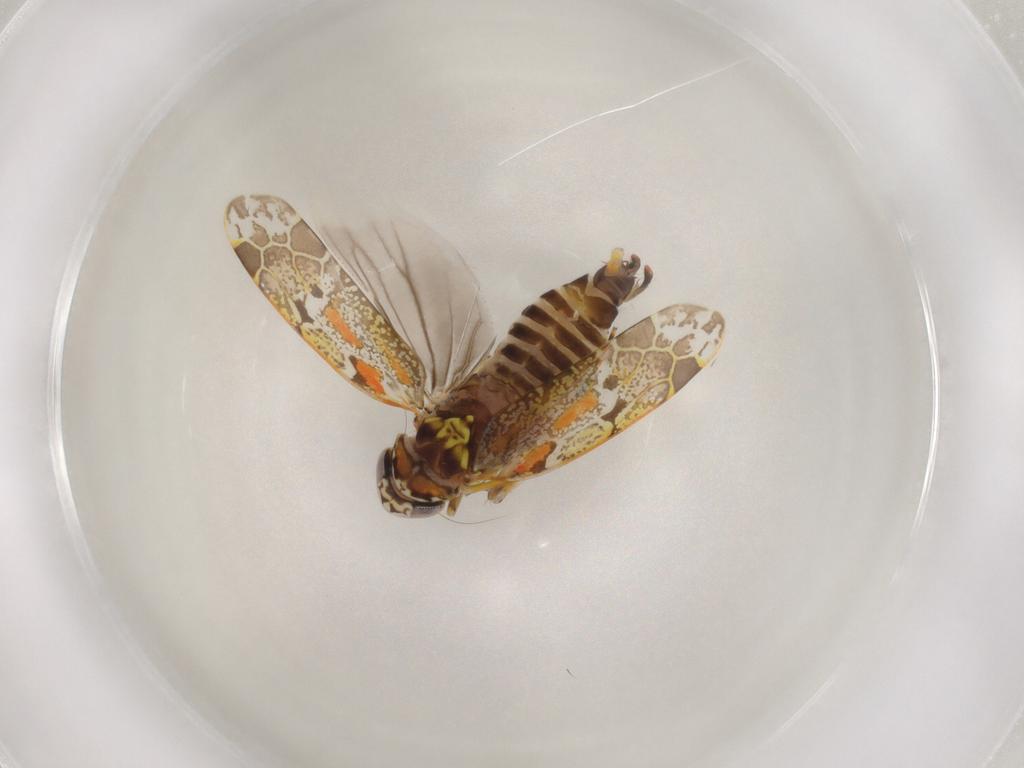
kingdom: Animalia
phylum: Arthropoda
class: Insecta
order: Hemiptera
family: Cicadellidae
